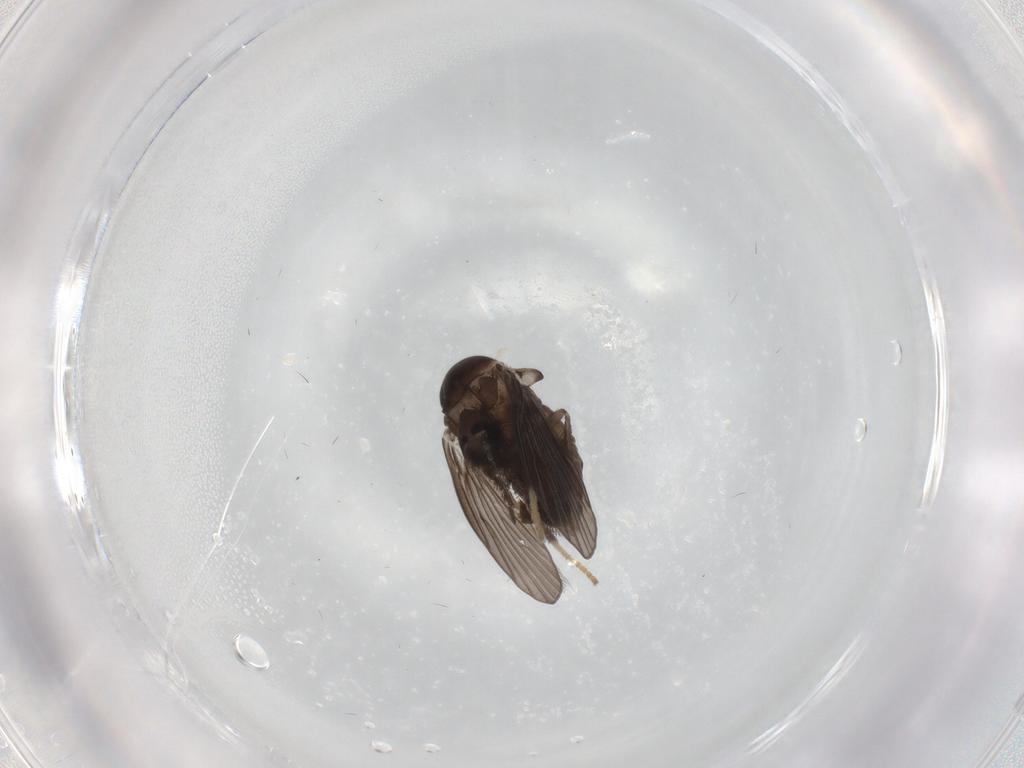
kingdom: Animalia
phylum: Arthropoda
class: Insecta
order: Diptera
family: Psychodidae
